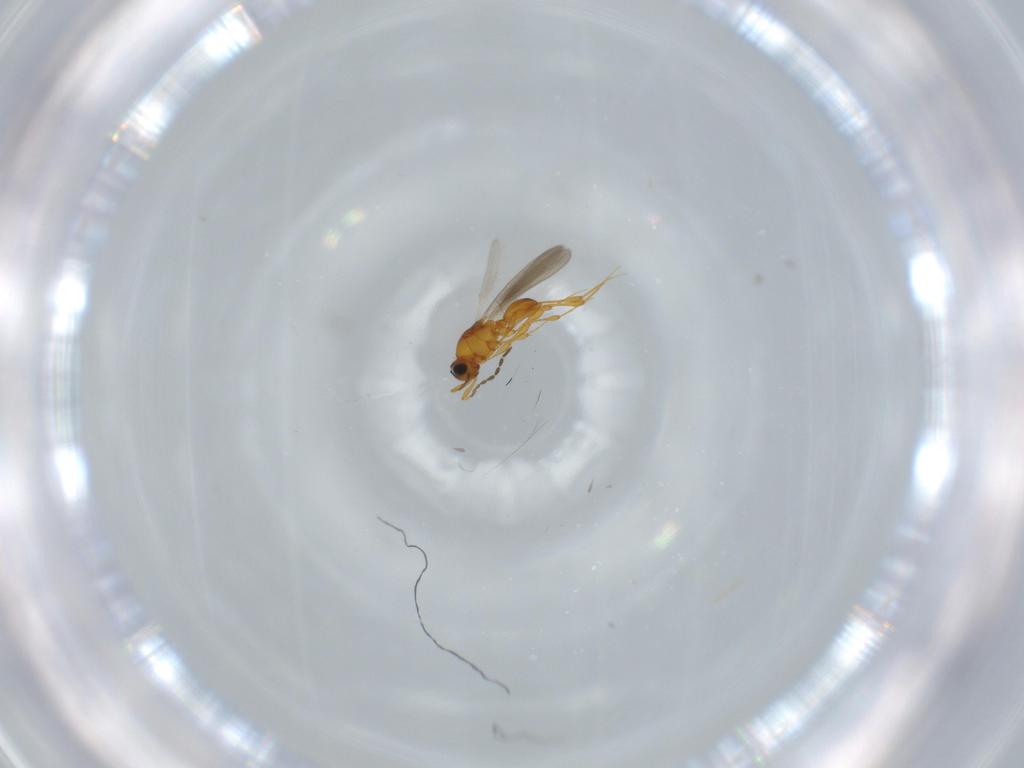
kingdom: Animalia
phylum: Arthropoda
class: Insecta
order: Hymenoptera
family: Platygastridae
